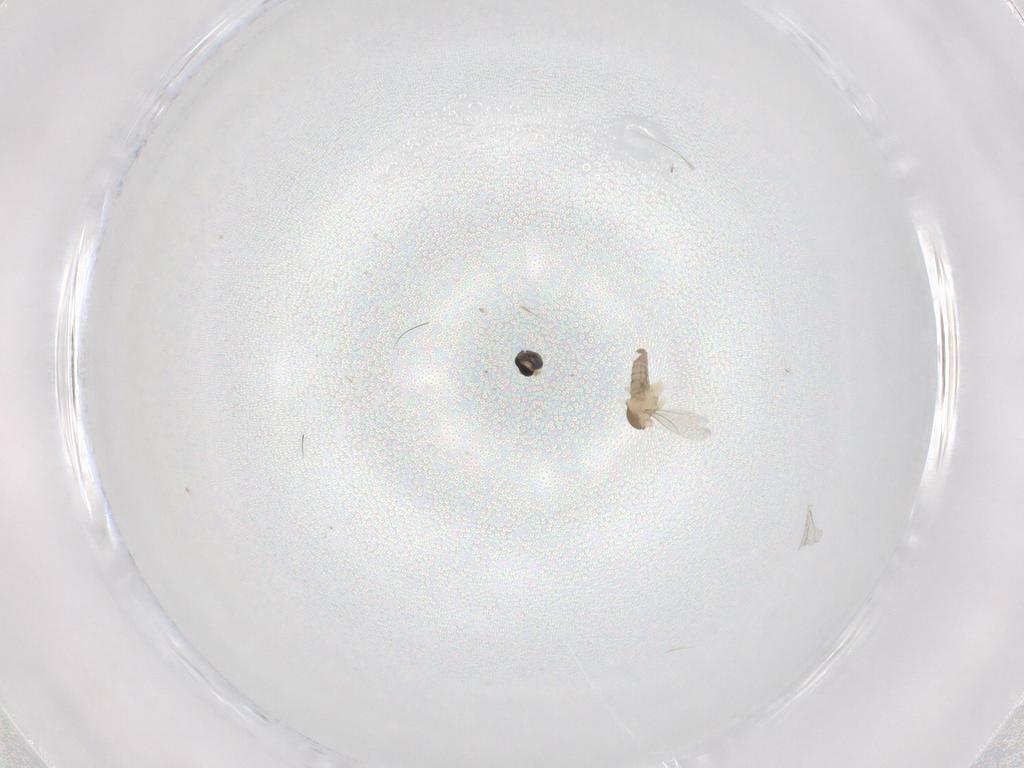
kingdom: Animalia
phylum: Arthropoda
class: Insecta
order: Diptera
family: Cecidomyiidae
